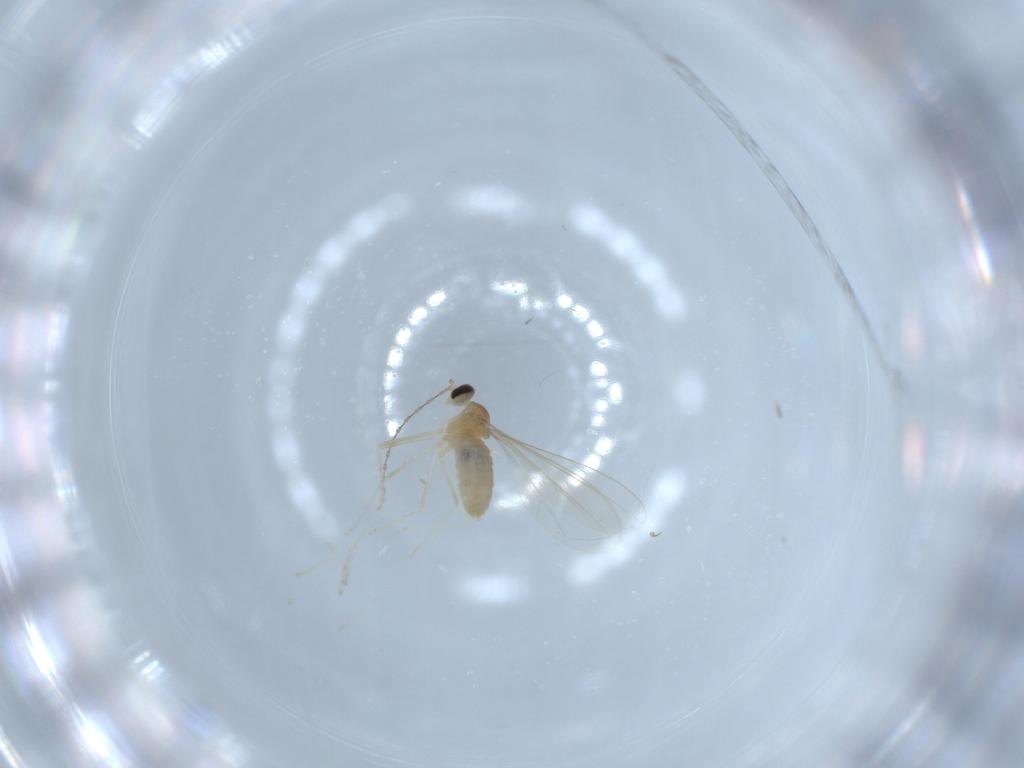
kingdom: Animalia
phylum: Arthropoda
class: Insecta
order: Diptera
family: Cecidomyiidae
